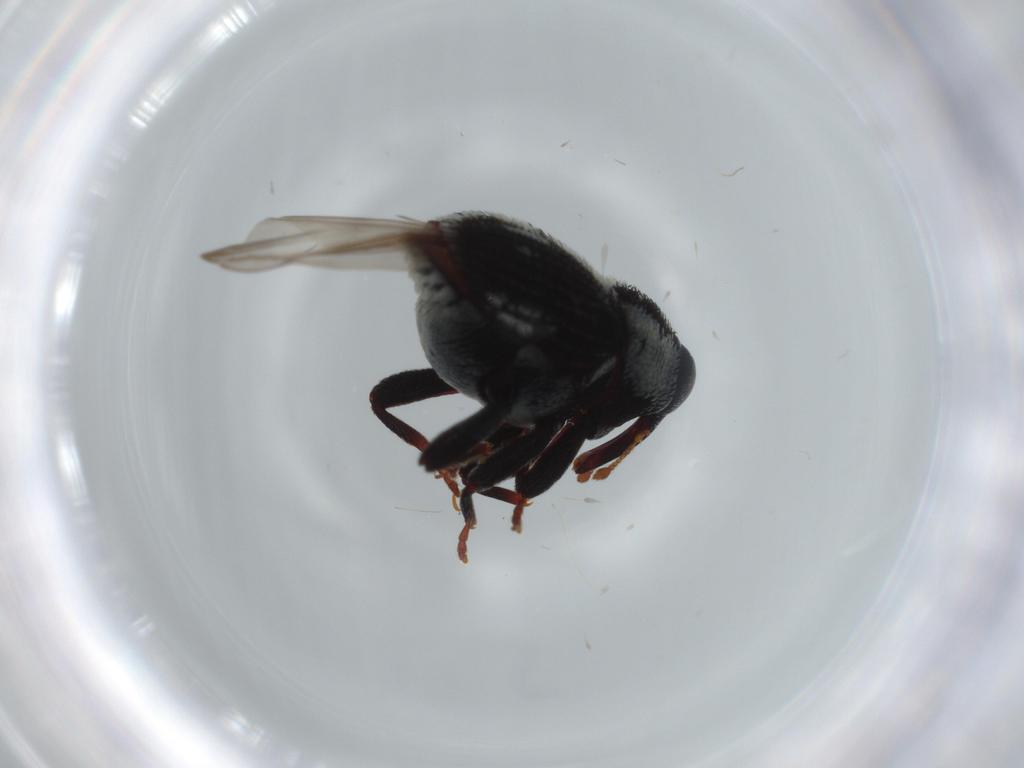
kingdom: Animalia
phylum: Arthropoda
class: Insecta
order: Coleoptera
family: Curculionidae
